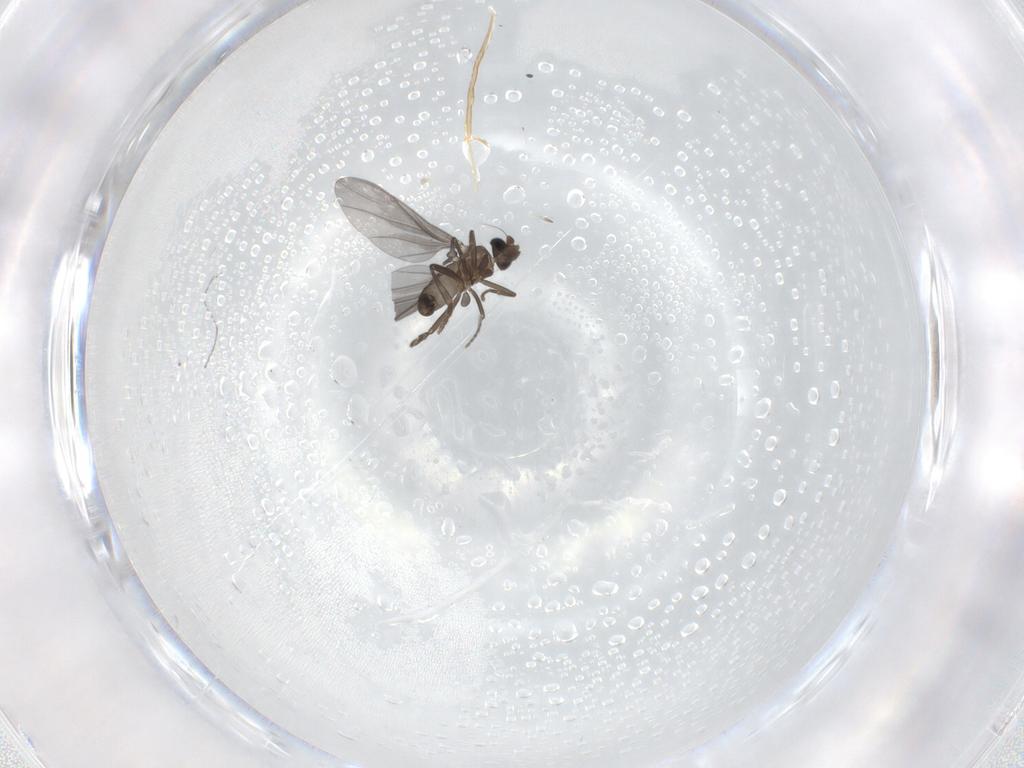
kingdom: Animalia
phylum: Arthropoda
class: Insecta
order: Diptera
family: Phoridae
